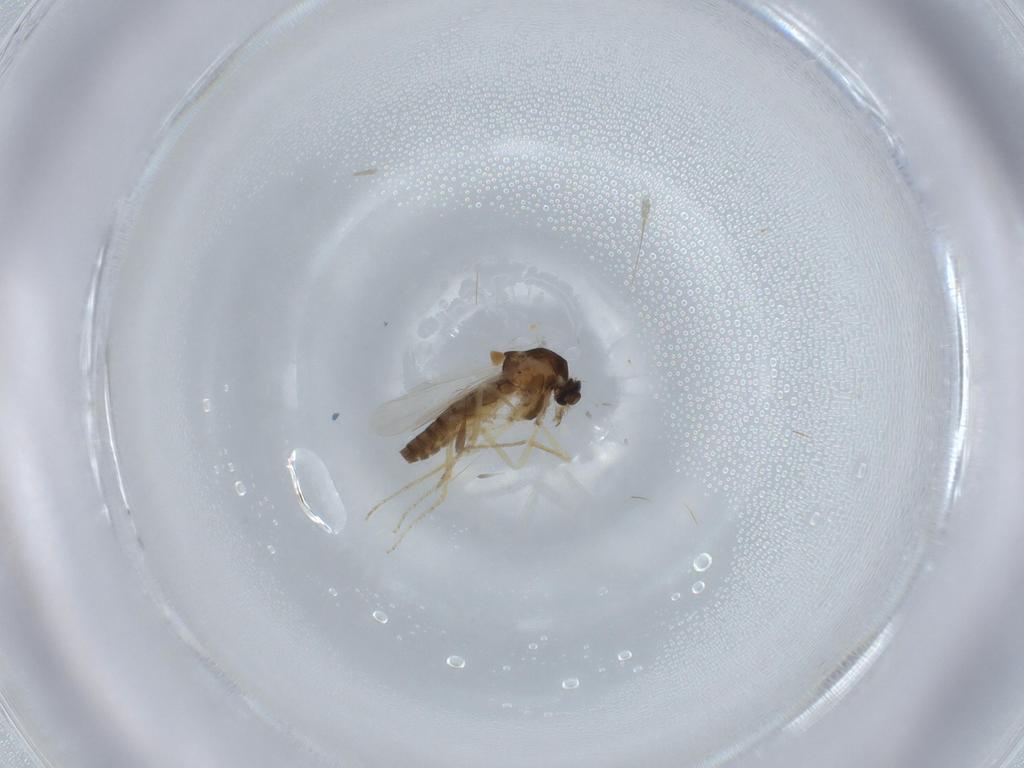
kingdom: Animalia
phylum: Arthropoda
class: Insecta
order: Diptera
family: Ceratopogonidae
